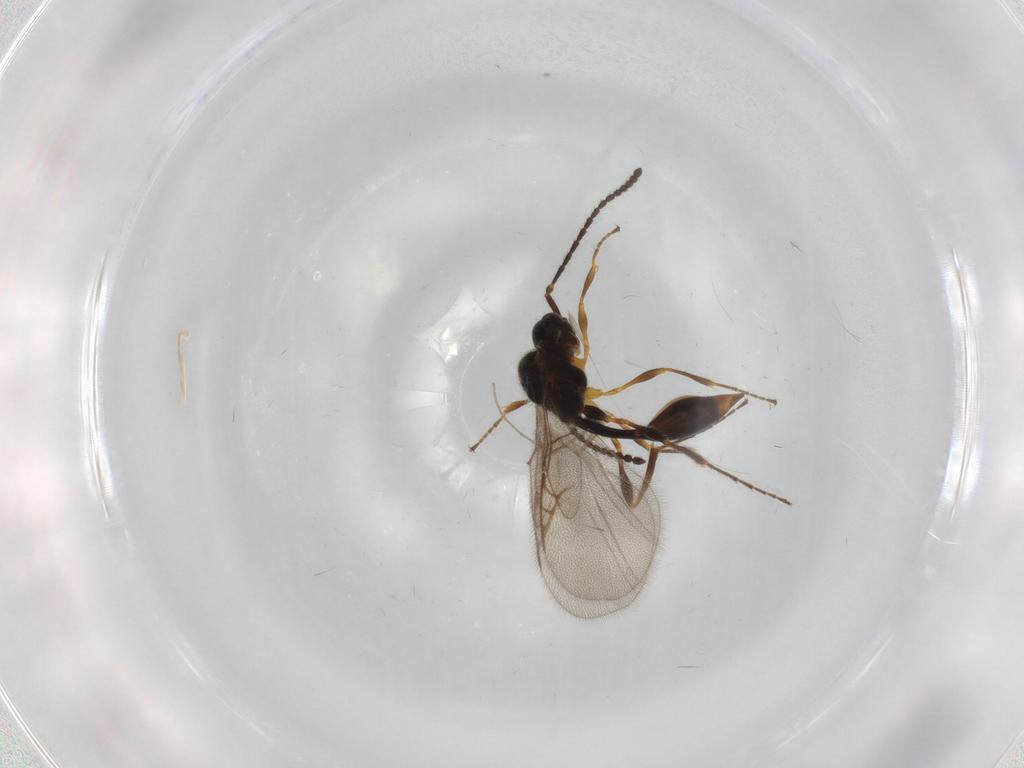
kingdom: Animalia
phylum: Arthropoda
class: Insecta
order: Hymenoptera
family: Diapriidae
